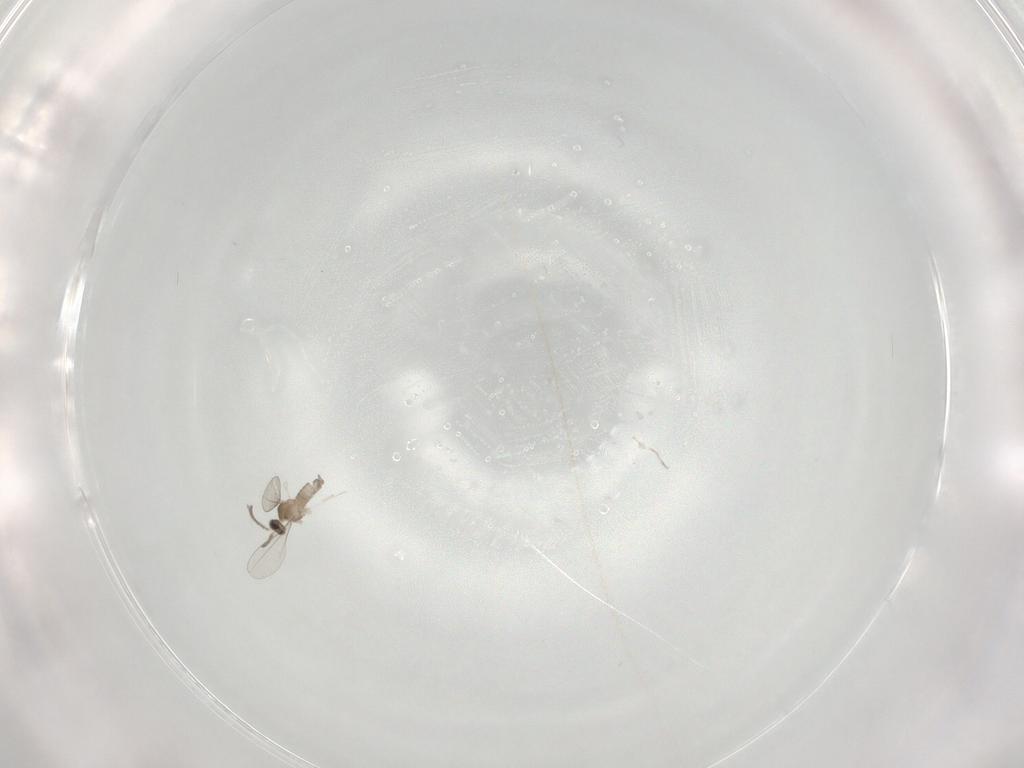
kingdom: Animalia
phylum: Arthropoda
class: Insecta
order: Diptera
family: Cecidomyiidae
